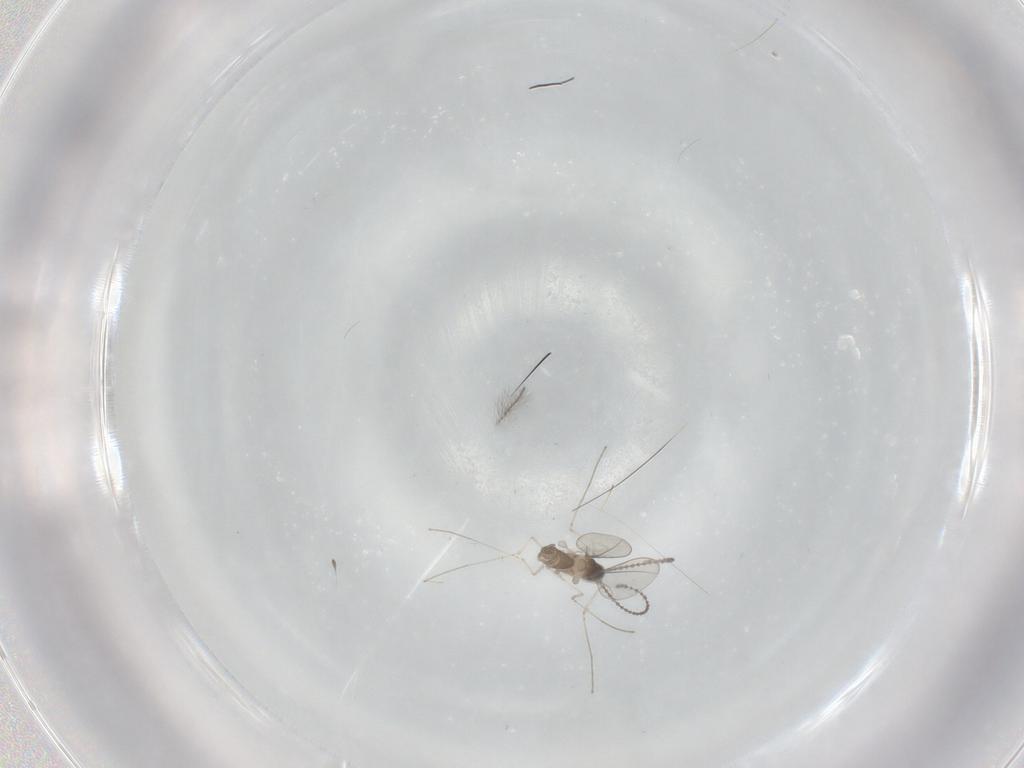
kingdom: Animalia
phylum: Arthropoda
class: Insecta
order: Diptera
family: Cecidomyiidae
